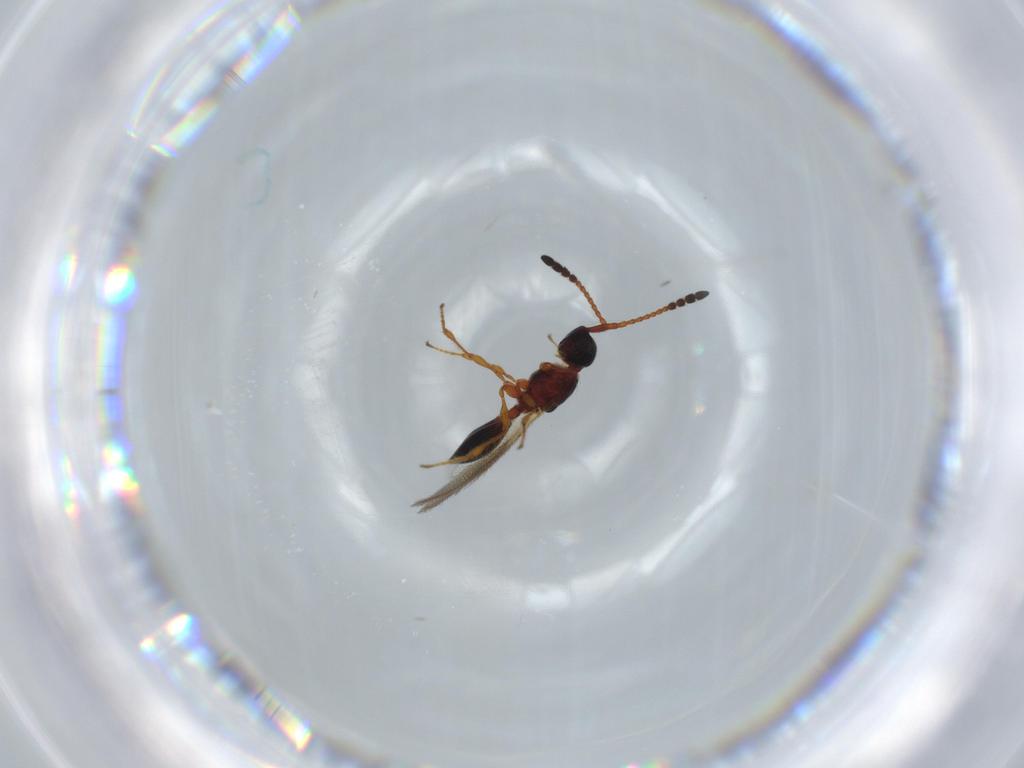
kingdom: Animalia
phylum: Arthropoda
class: Insecta
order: Hymenoptera
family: Diapriidae
